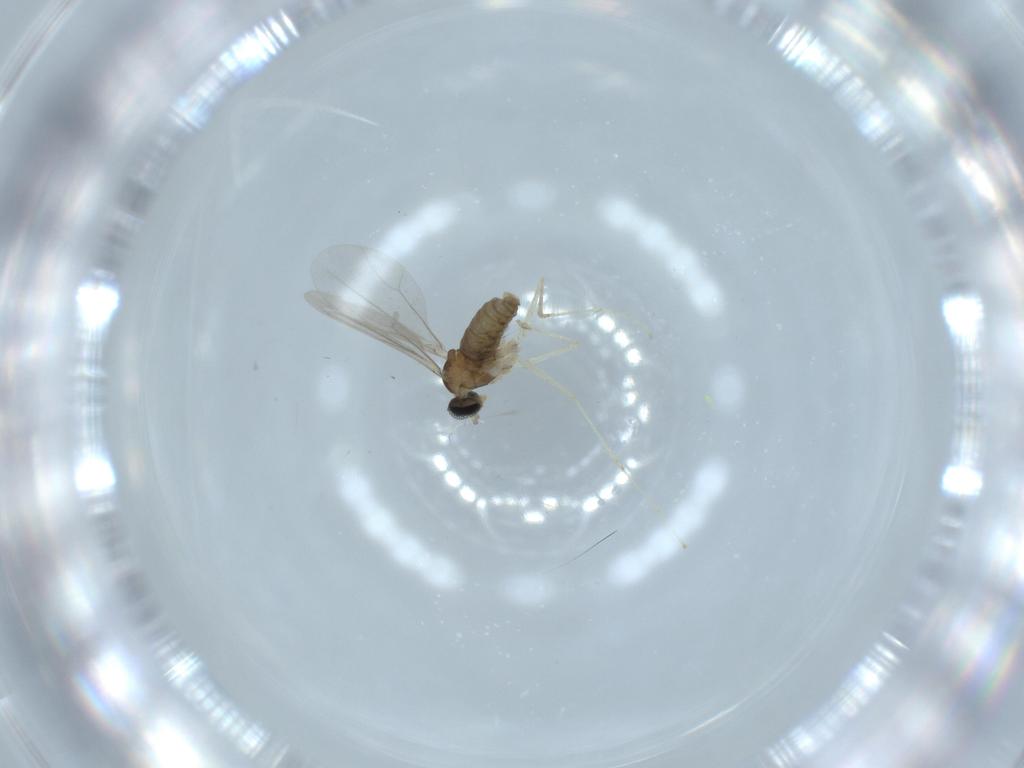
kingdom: Animalia
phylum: Arthropoda
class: Insecta
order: Diptera
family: Cecidomyiidae
